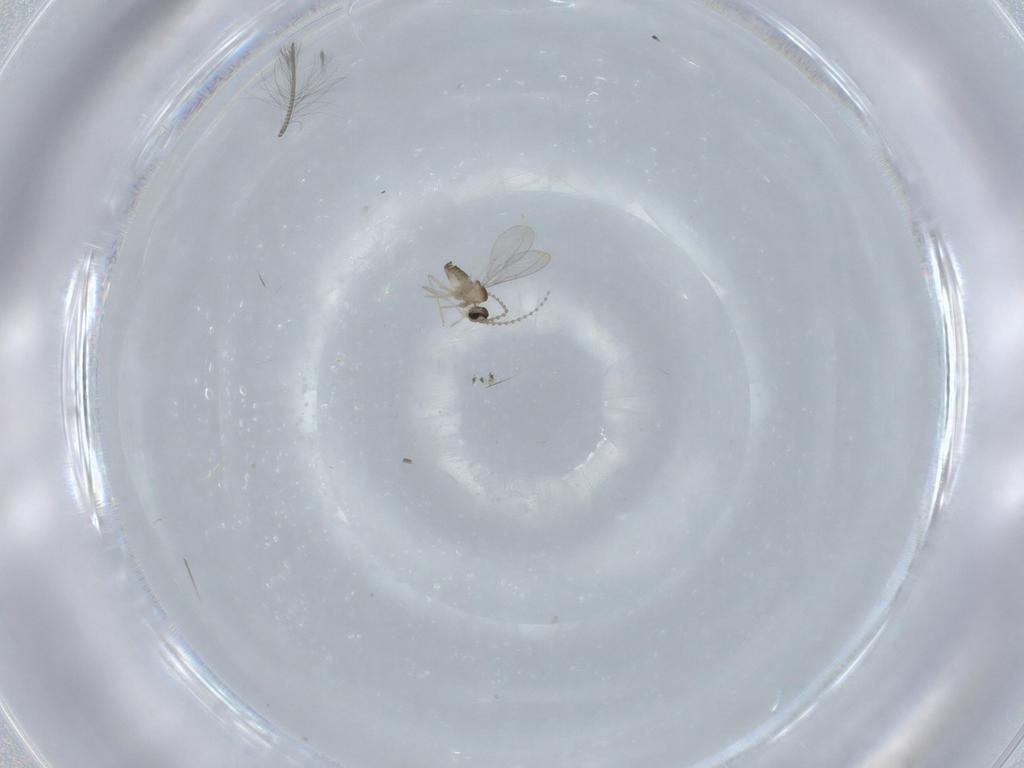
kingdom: Animalia
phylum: Arthropoda
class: Insecta
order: Diptera
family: Cecidomyiidae
